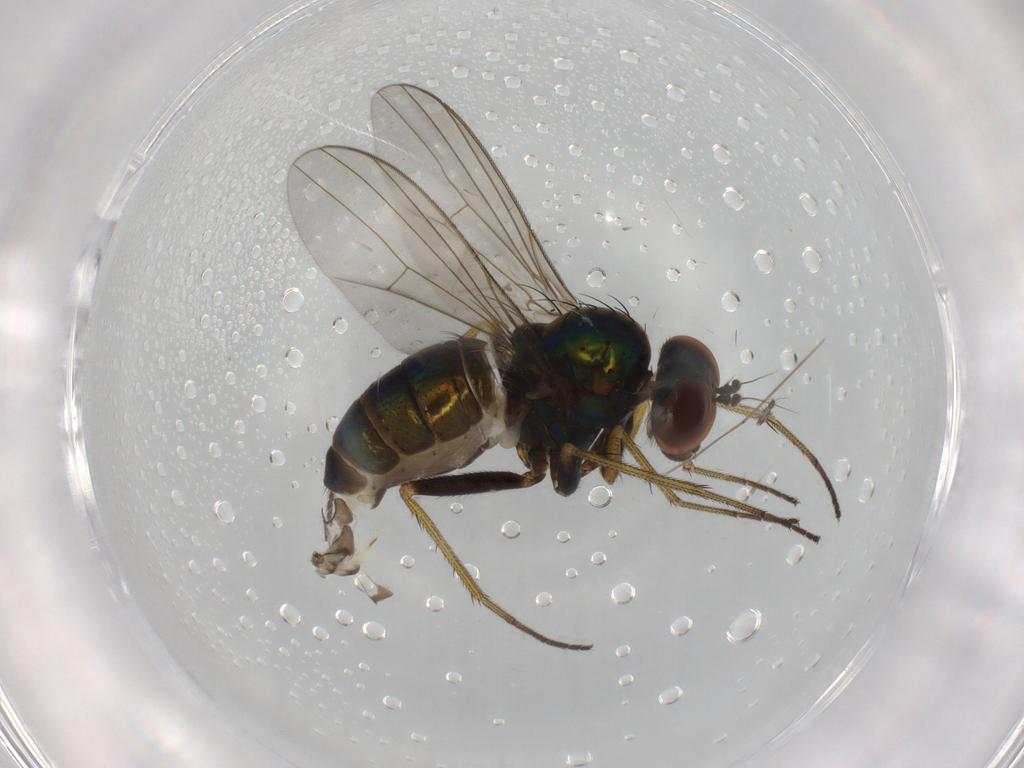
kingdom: Animalia
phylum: Arthropoda
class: Insecta
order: Diptera
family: Dolichopodidae
